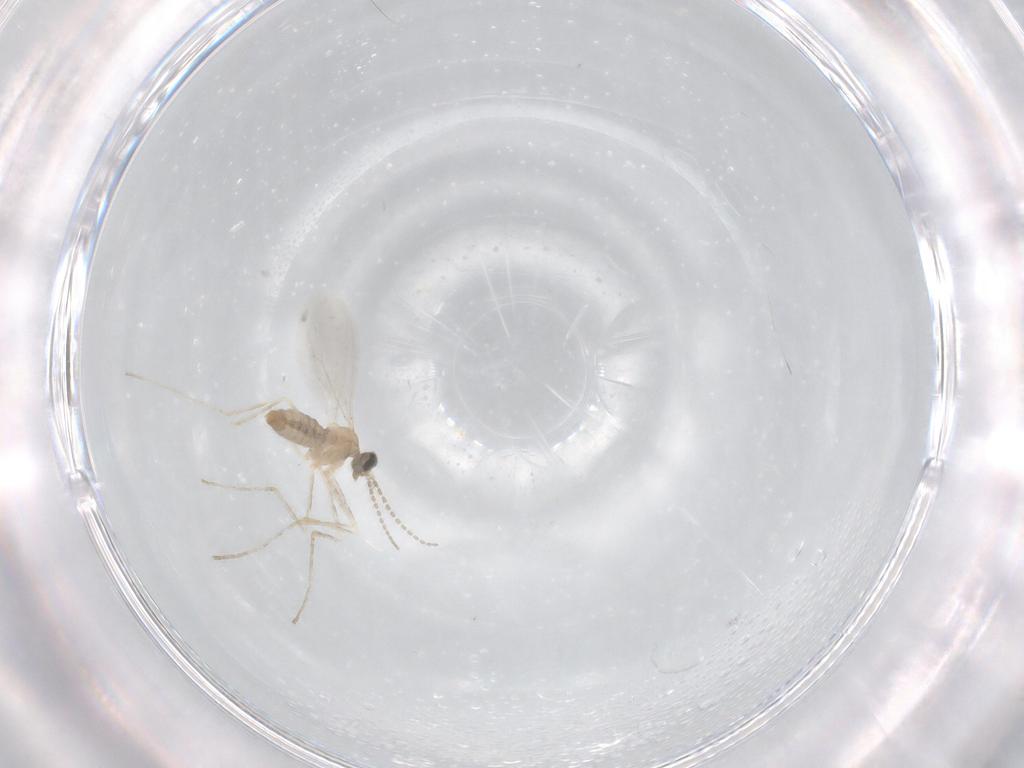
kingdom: Animalia
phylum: Arthropoda
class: Insecta
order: Diptera
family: Cecidomyiidae
